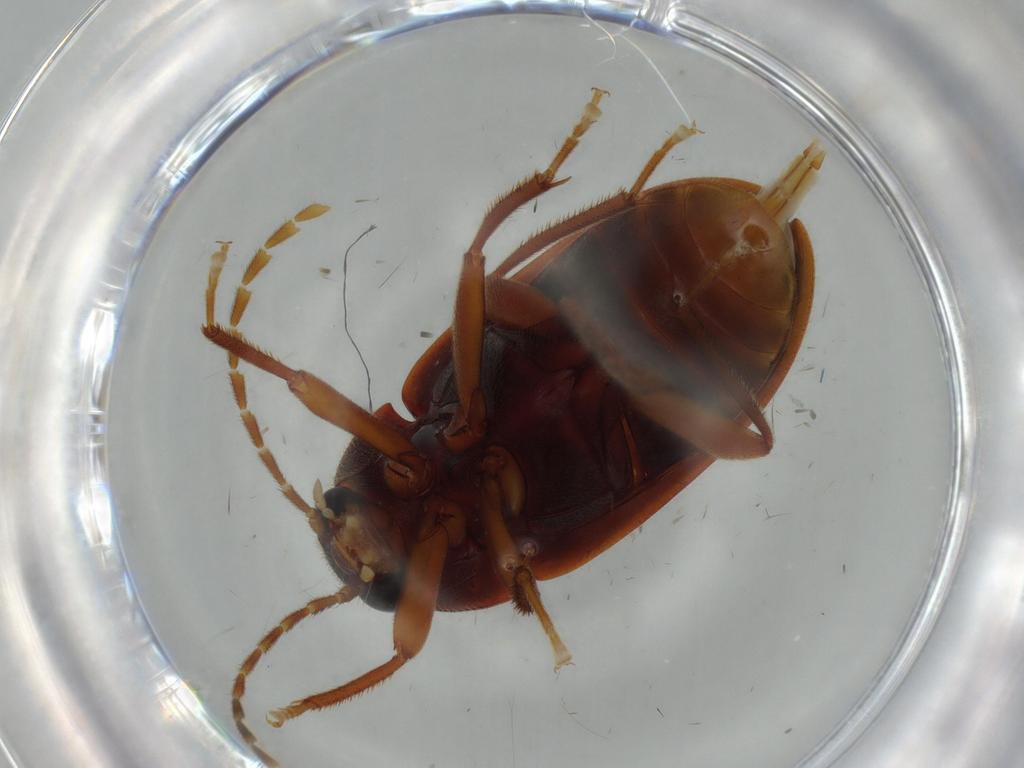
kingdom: Animalia
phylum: Arthropoda
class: Insecta
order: Coleoptera
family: Ptilodactylidae
